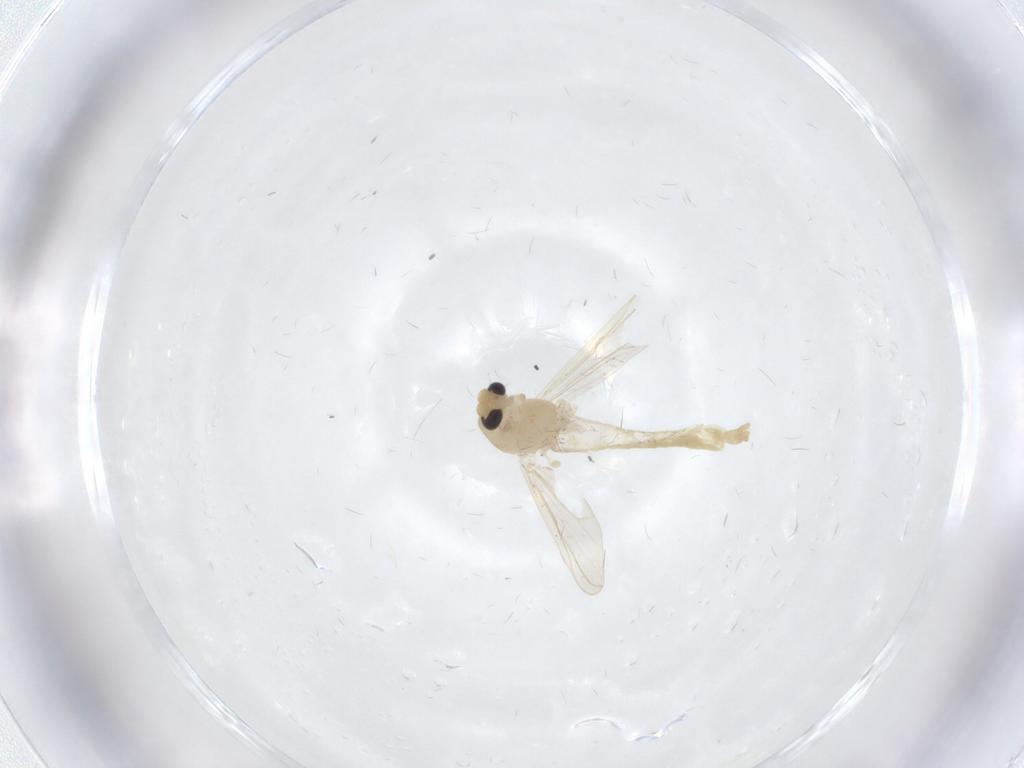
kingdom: Animalia
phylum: Arthropoda
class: Insecta
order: Diptera
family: Chironomidae
